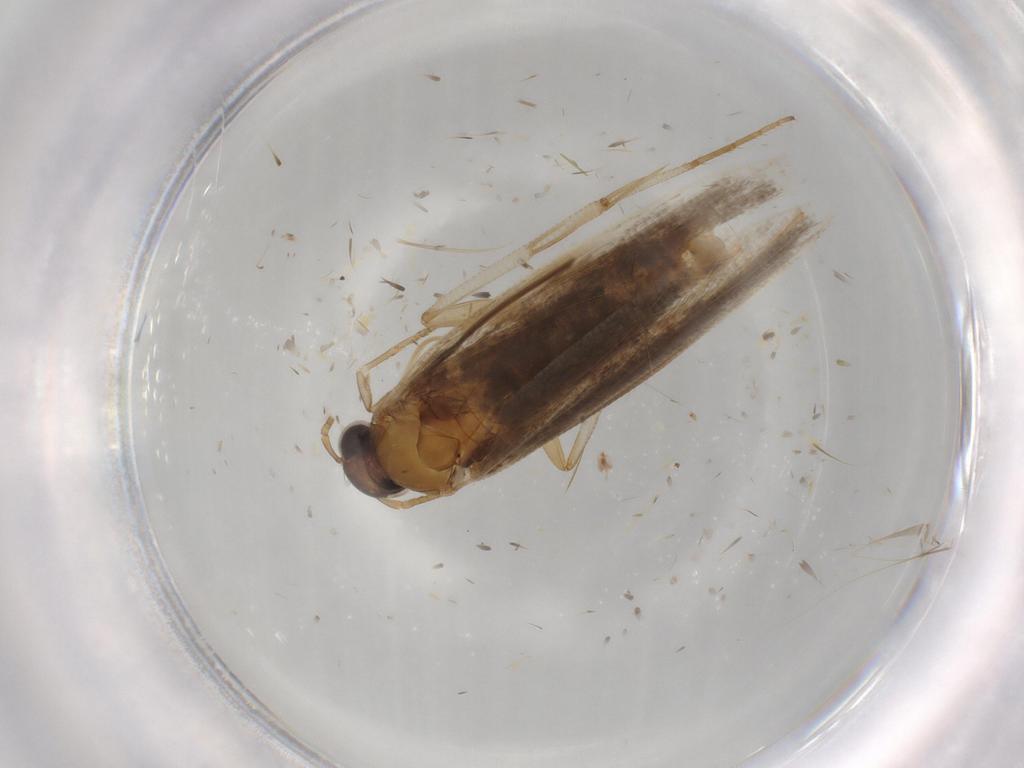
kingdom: Animalia
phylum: Arthropoda
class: Insecta
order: Lepidoptera
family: Gelechiidae
